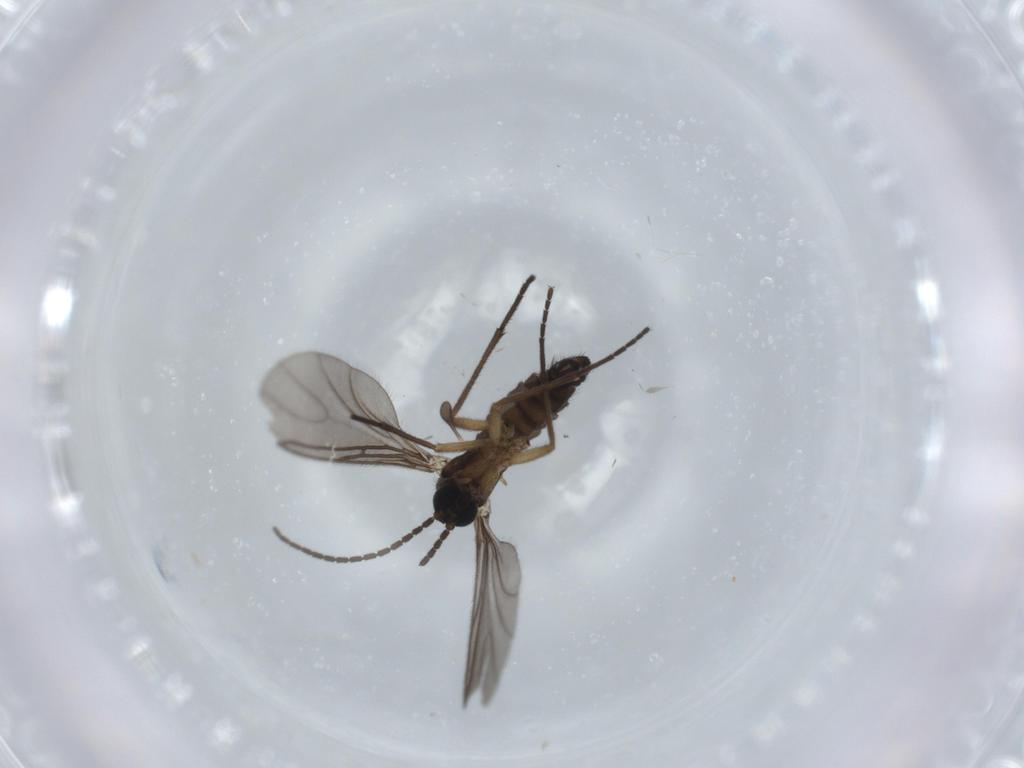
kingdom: Animalia
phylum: Arthropoda
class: Insecta
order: Diptera
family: Sciaridae
